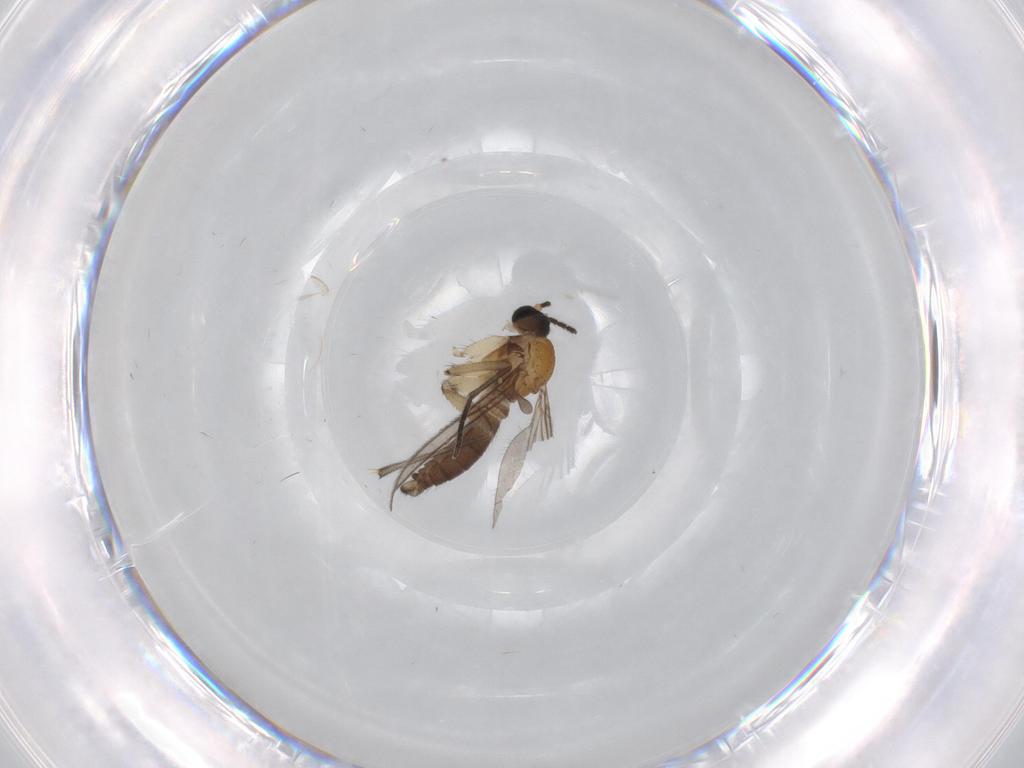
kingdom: Animalia
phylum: Arthropoda
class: Insecta
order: Diptera
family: Sciaridae
